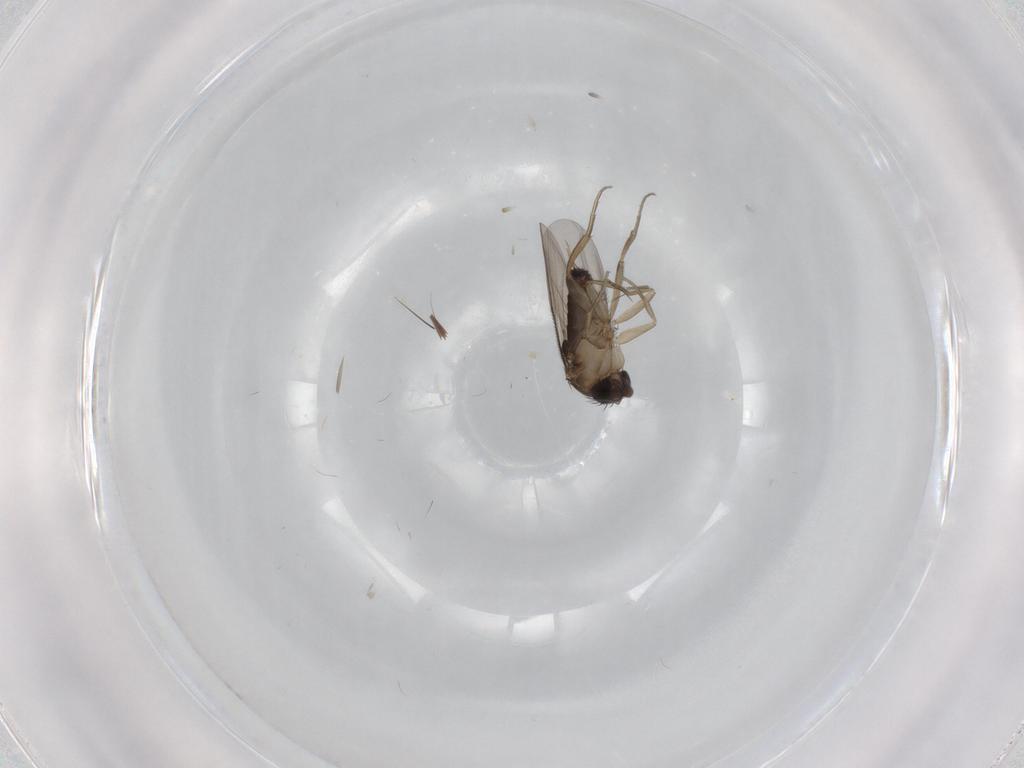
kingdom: Animalia
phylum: Arthropoda
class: Insecta
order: Diptera
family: Phoridae
